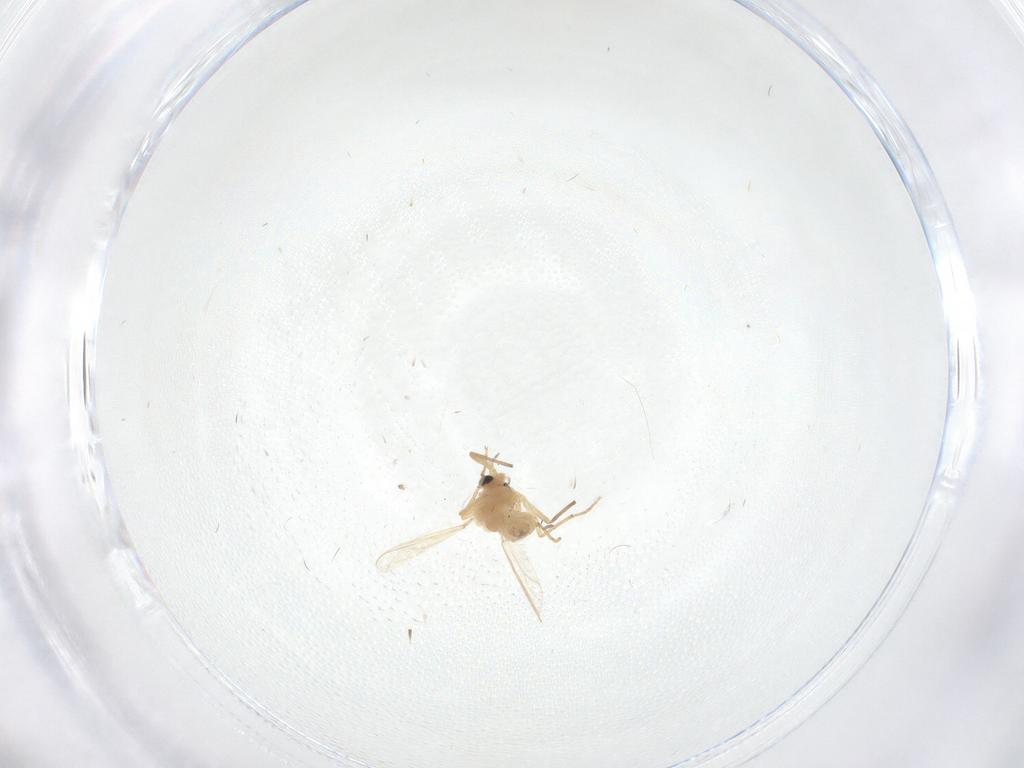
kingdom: Animalia
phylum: Arthropoda
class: Insecta
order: Diptera
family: Chironomidae
